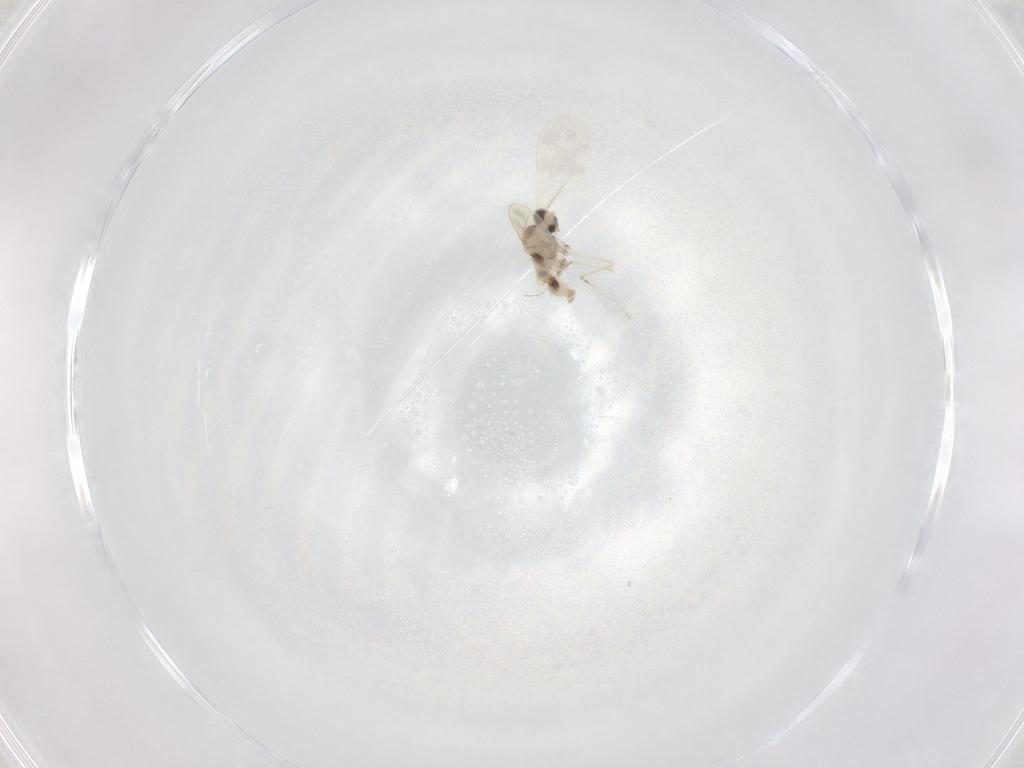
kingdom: Animalia
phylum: Arthropoda
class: Insecta
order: Diptera
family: Cecidomyiidae
